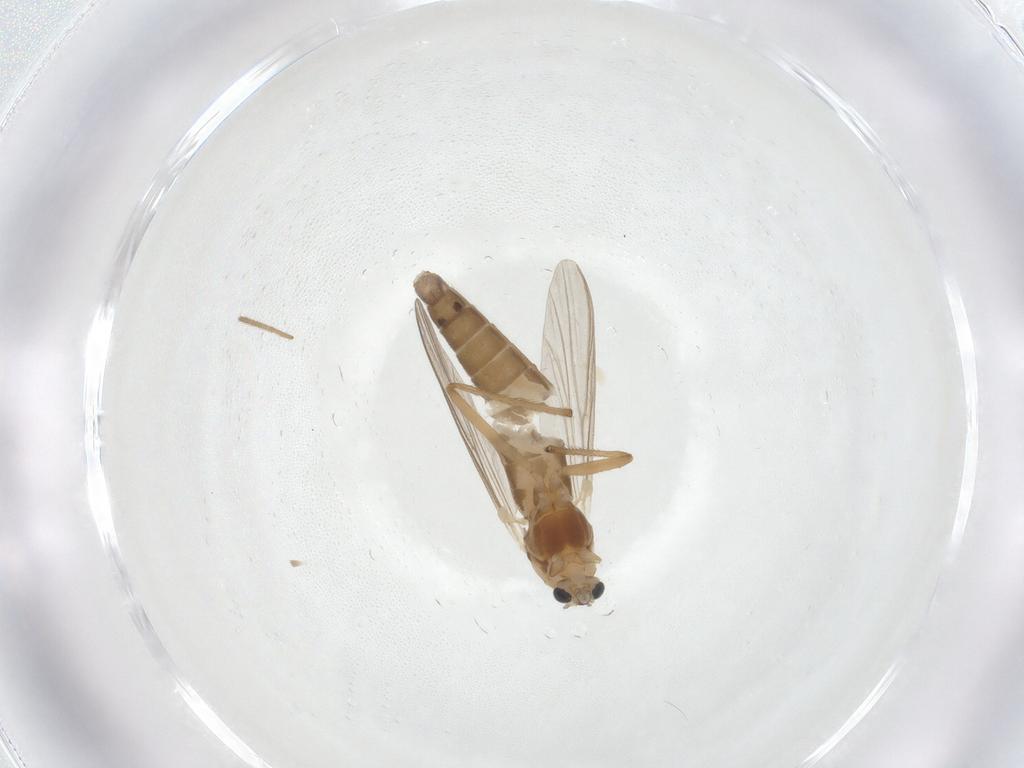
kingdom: Animalia
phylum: Arthropoda
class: Insecta
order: Diptera
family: Chironomidae
